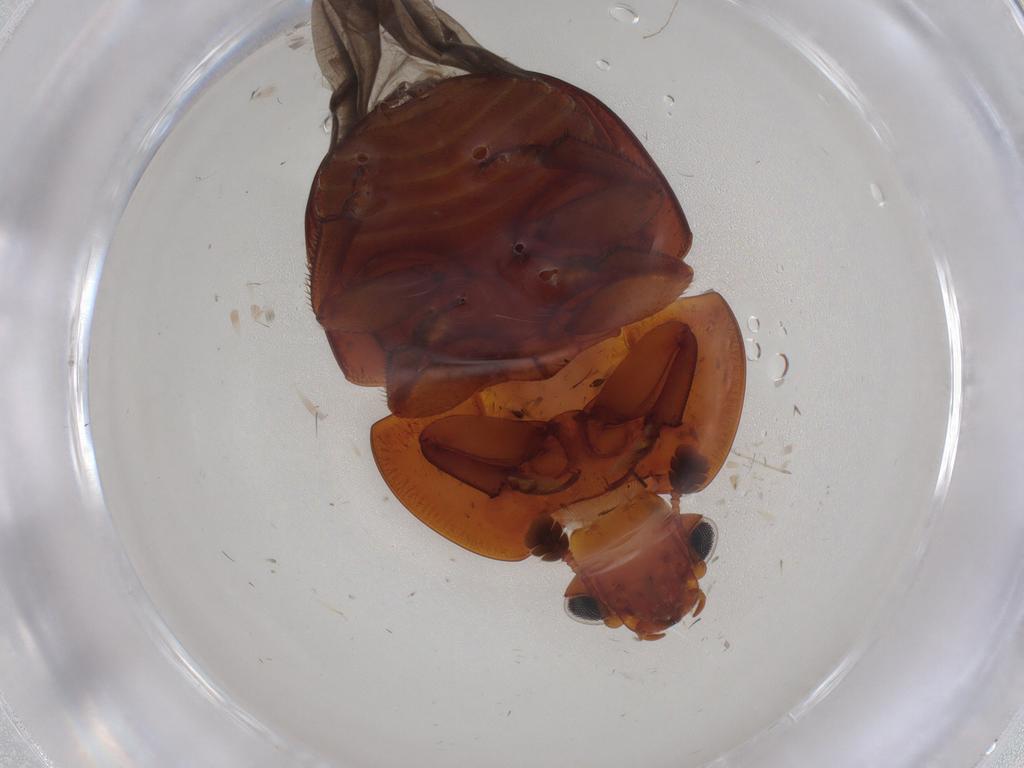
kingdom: Animalia
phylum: Arthropoda
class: Insecta
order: Coleoptera
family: Nitidulidae
